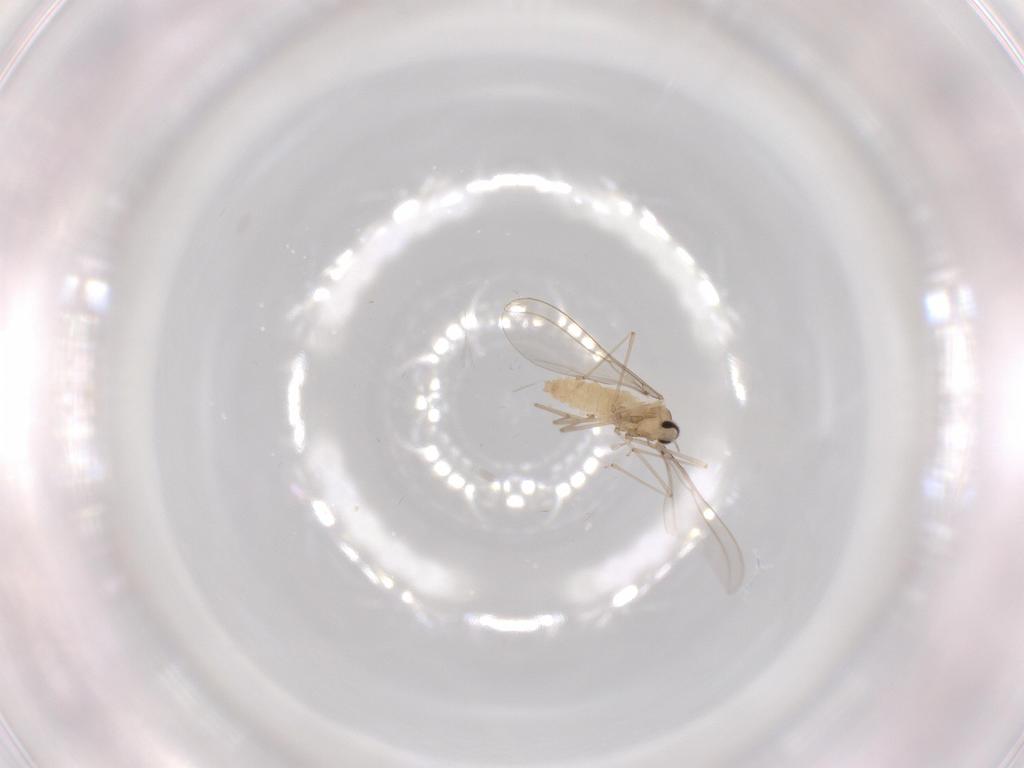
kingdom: Animalia
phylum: Arthropoda
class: Insecta
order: Diptera
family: Cecidomyiidae
